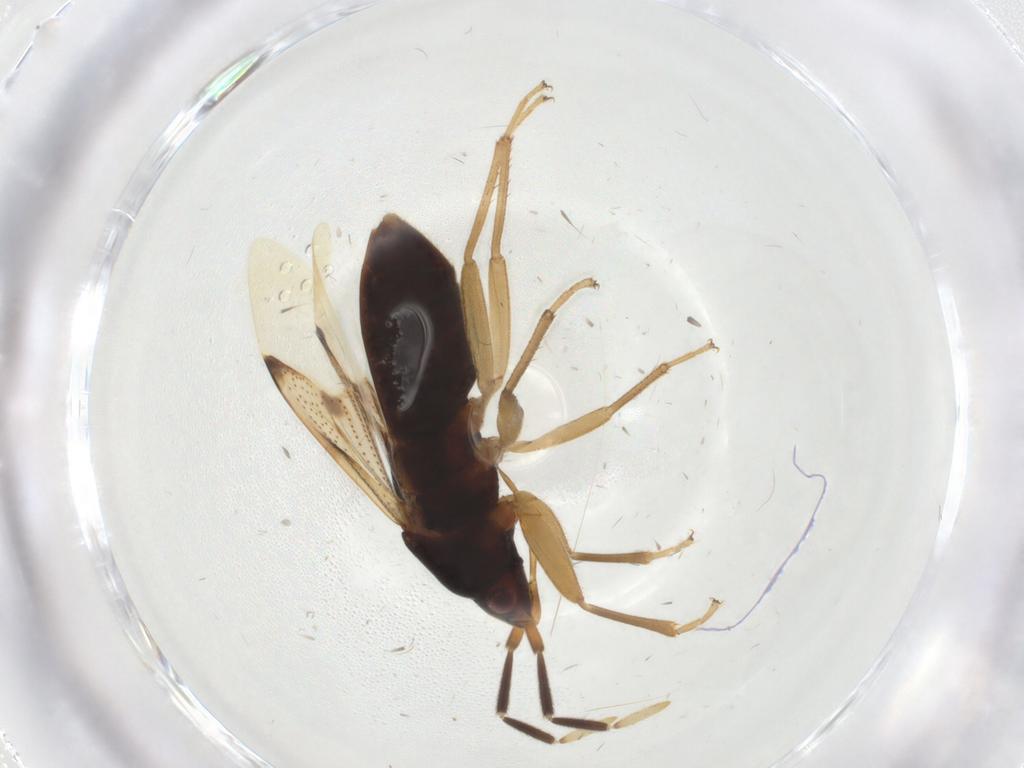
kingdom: Animalia
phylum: Arthropoda
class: Insecta
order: Hemiptera
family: Rhyparochromidae
